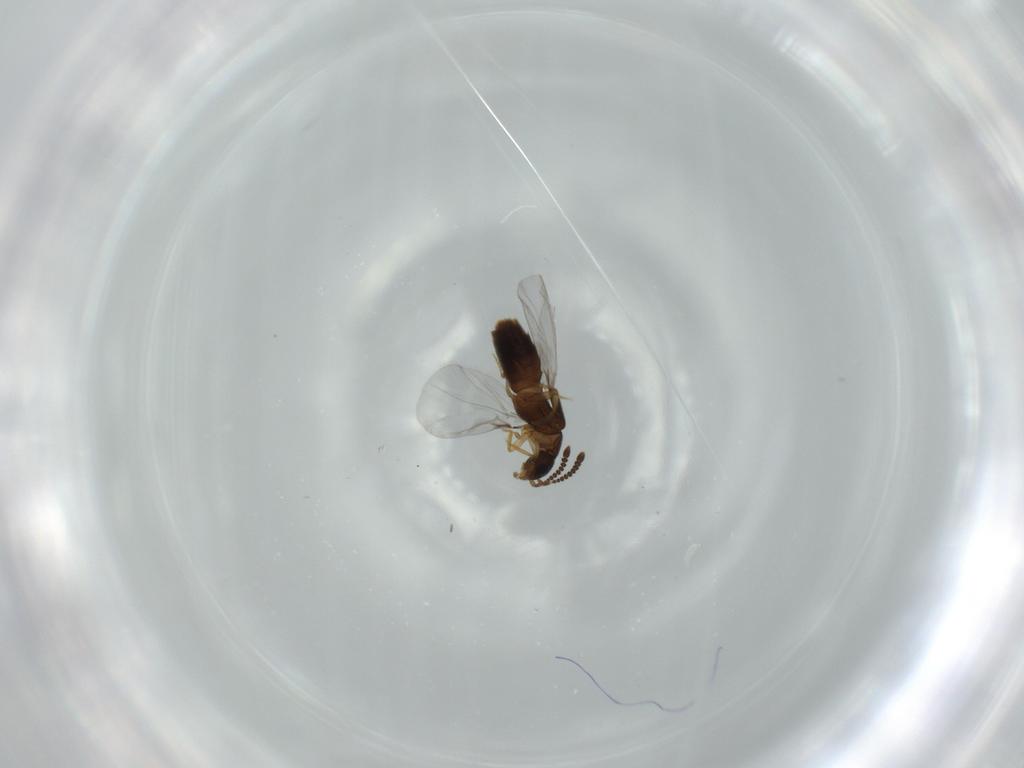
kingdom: Animalia
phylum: Arthropoda
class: Insecta
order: Coleoptera
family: Staphylinidae
